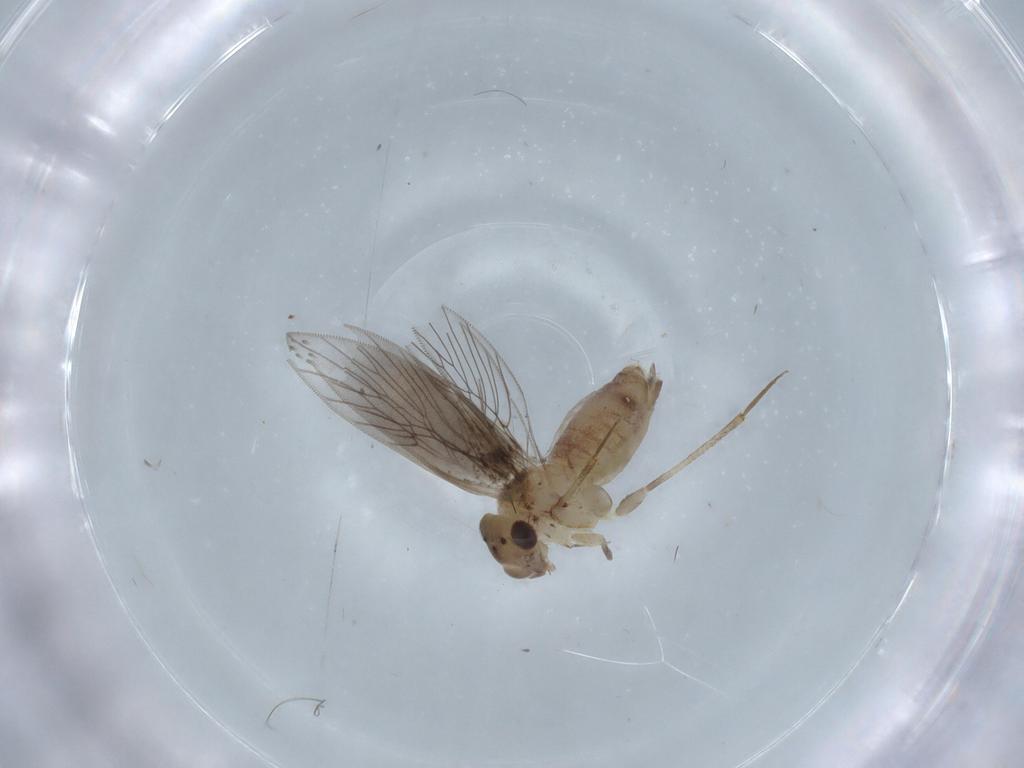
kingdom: Animalia
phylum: Arthropoda
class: Insecta
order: Psocodea
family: Lepidopsocidae
